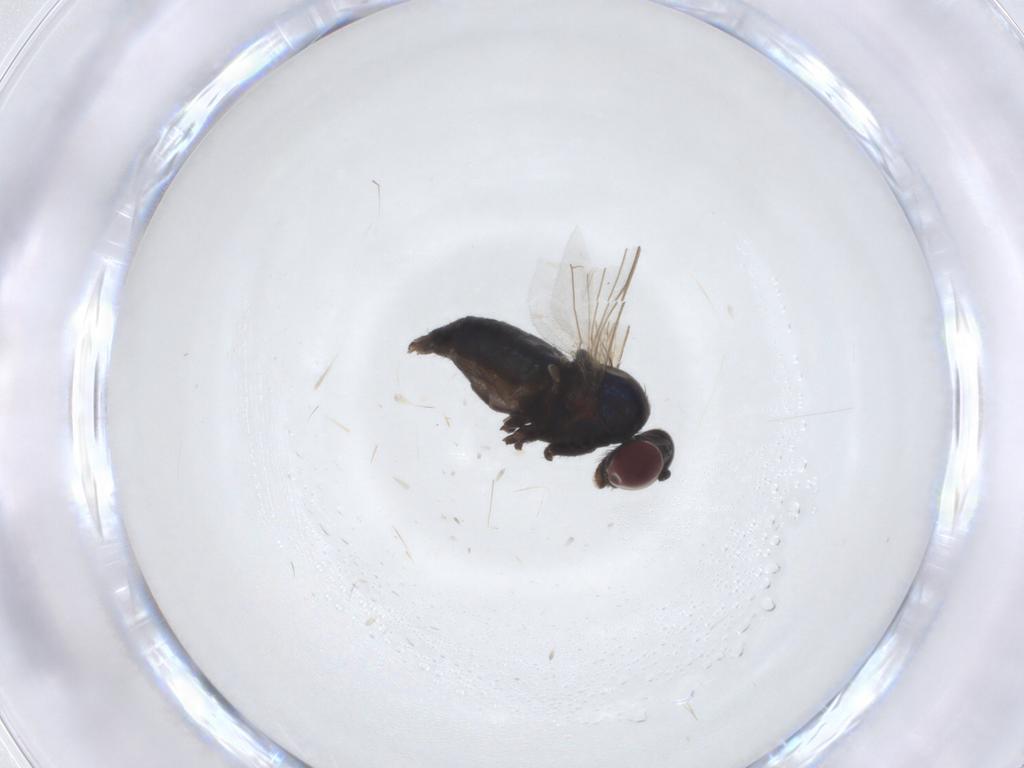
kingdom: Animalia
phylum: Arthropoda
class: Insecta
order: Diptera
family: Dolichopodidae
